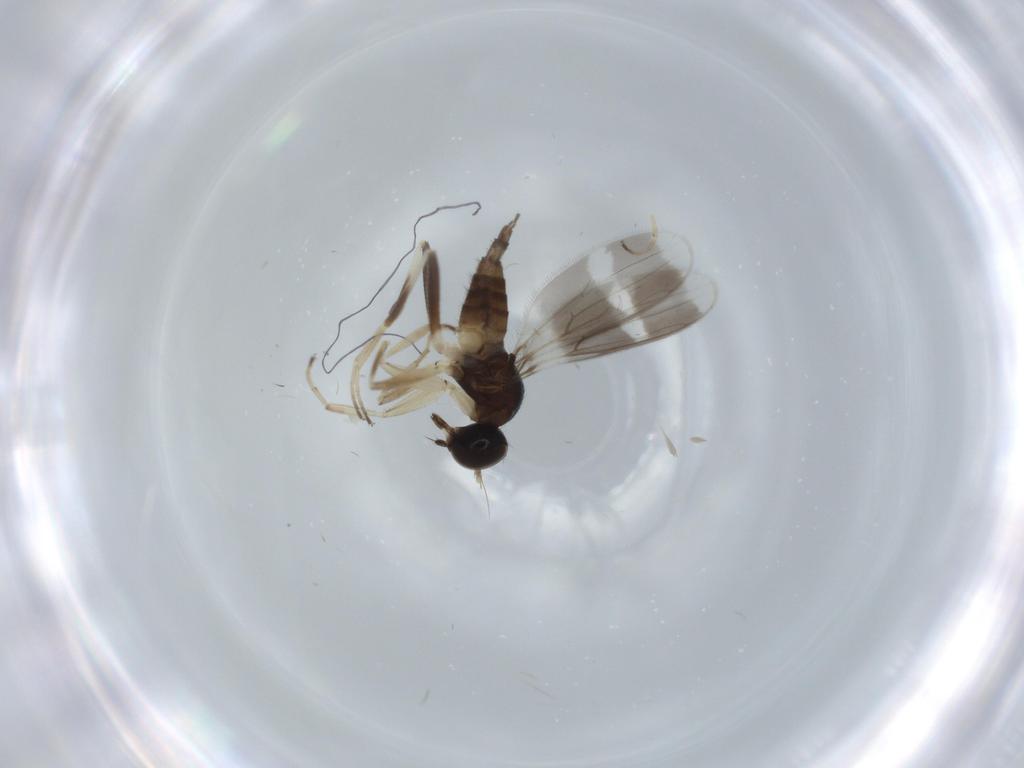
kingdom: Animalia
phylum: Arthropoda
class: Insecta
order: Diptera
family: Hybotidae
